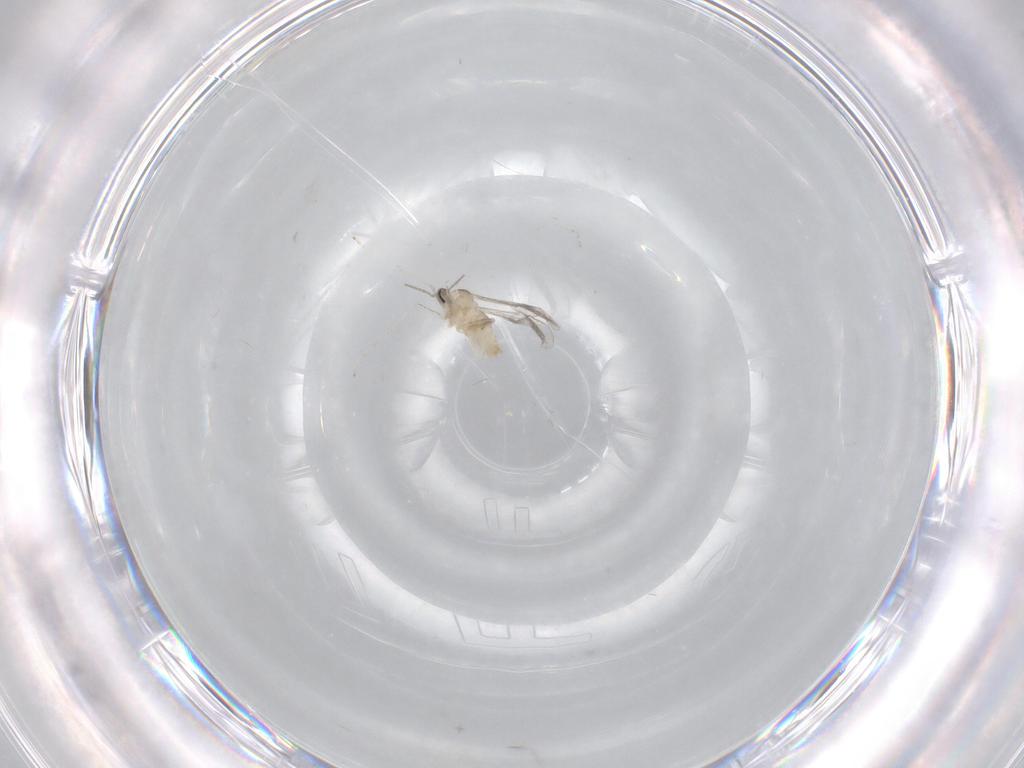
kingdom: Animalia
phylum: Arthropoda
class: Insecta
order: Diptera
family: Cecidomyiidae
